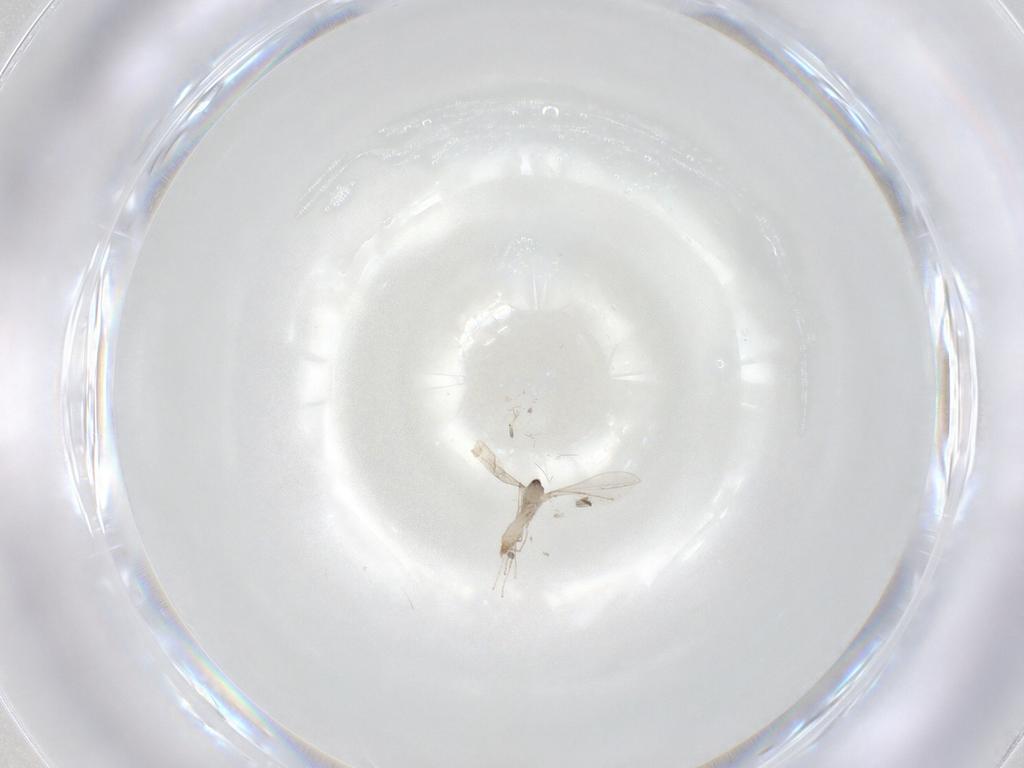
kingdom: Animalia
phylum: Arthropoda
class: Insecta
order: Diptera
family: Cecidomyiidae
